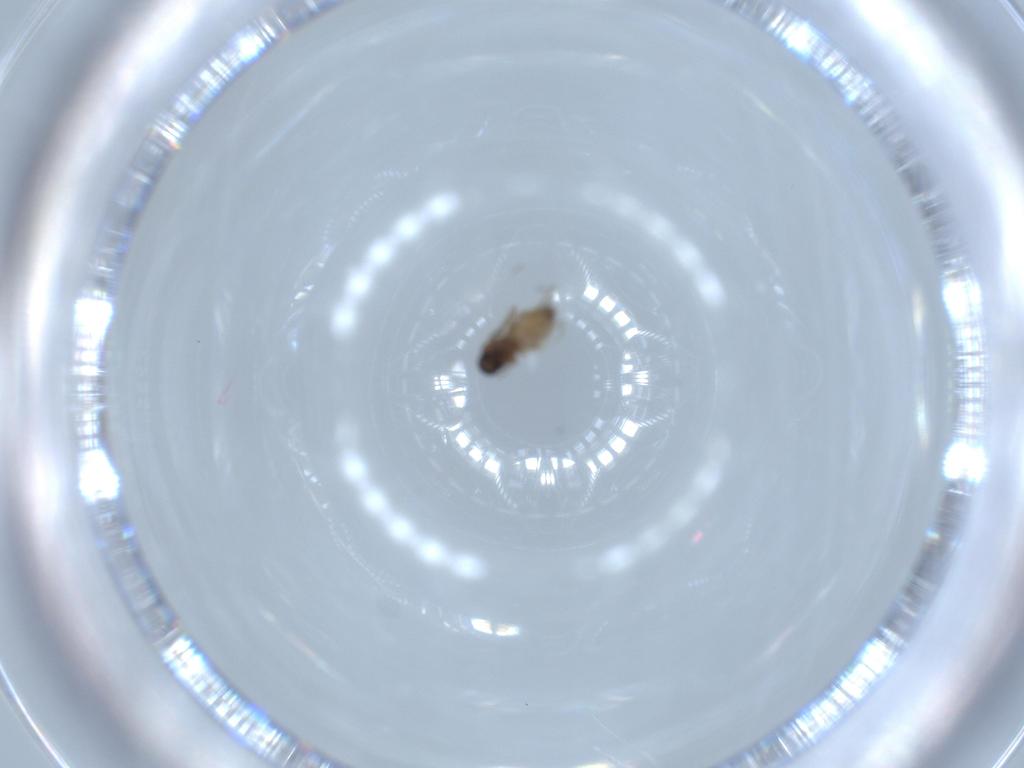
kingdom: Animalia
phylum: Arthropoda
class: Insecta
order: Diptera
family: Ceratopogonidae
